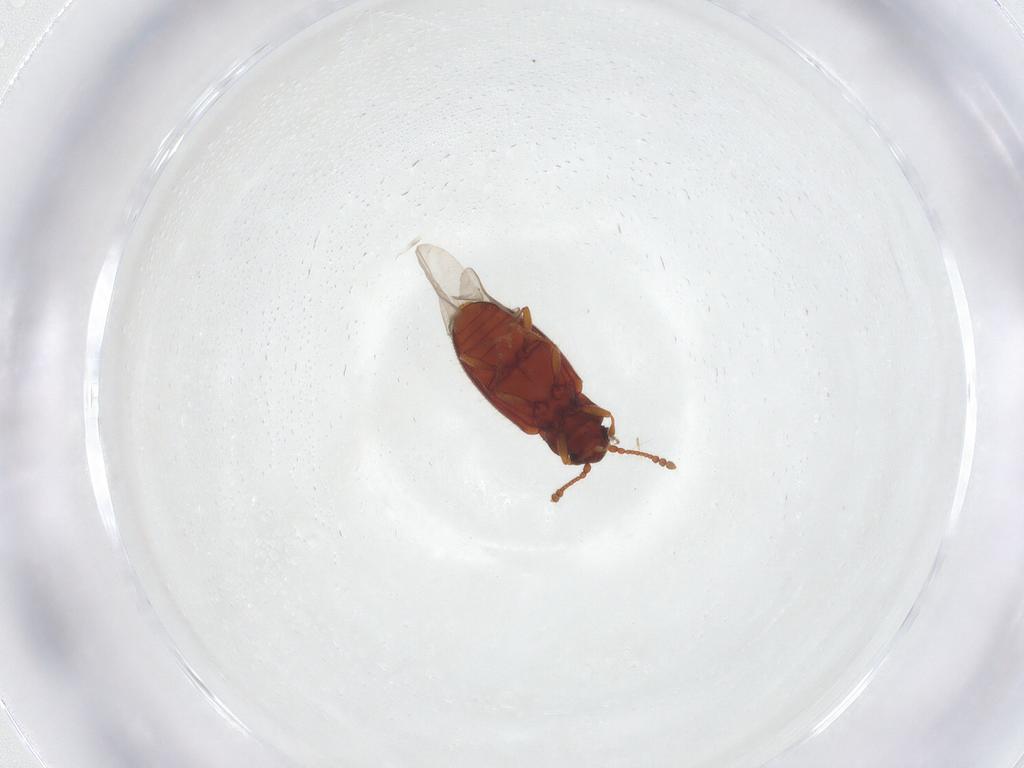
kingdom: Animalia
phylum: Arthropoda
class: Insecta
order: Coleoptera
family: Cryptophagidae
